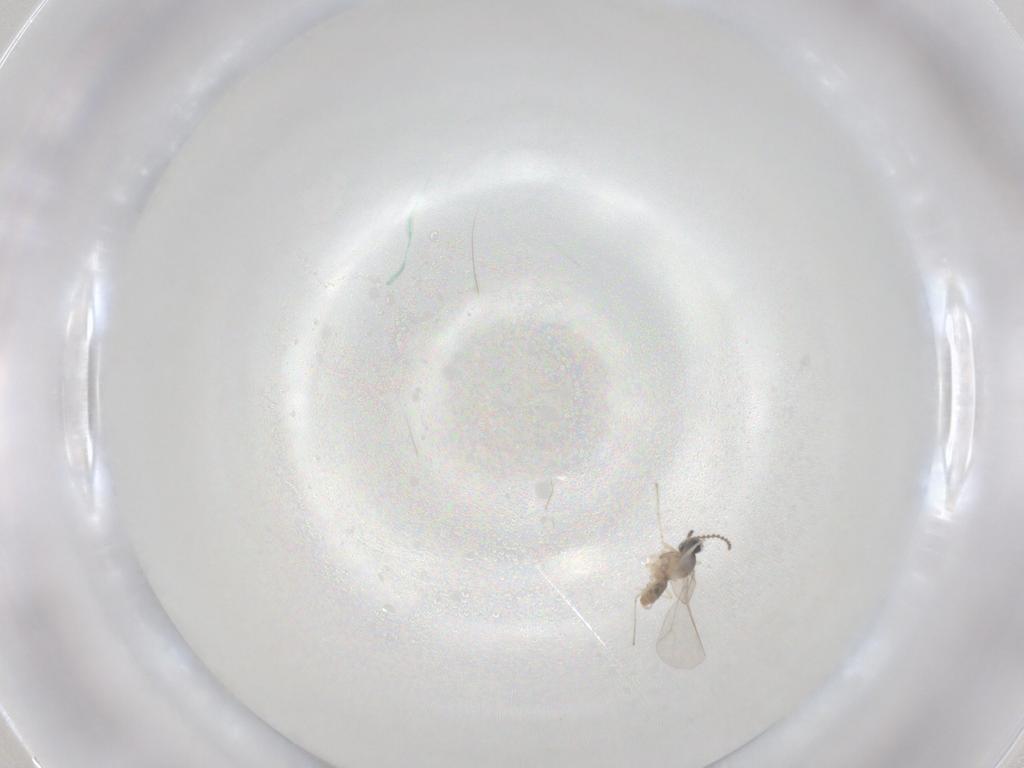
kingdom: Animalia
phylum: Arthropoda
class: Insecta
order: Diptera
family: Cecidomyiidae
